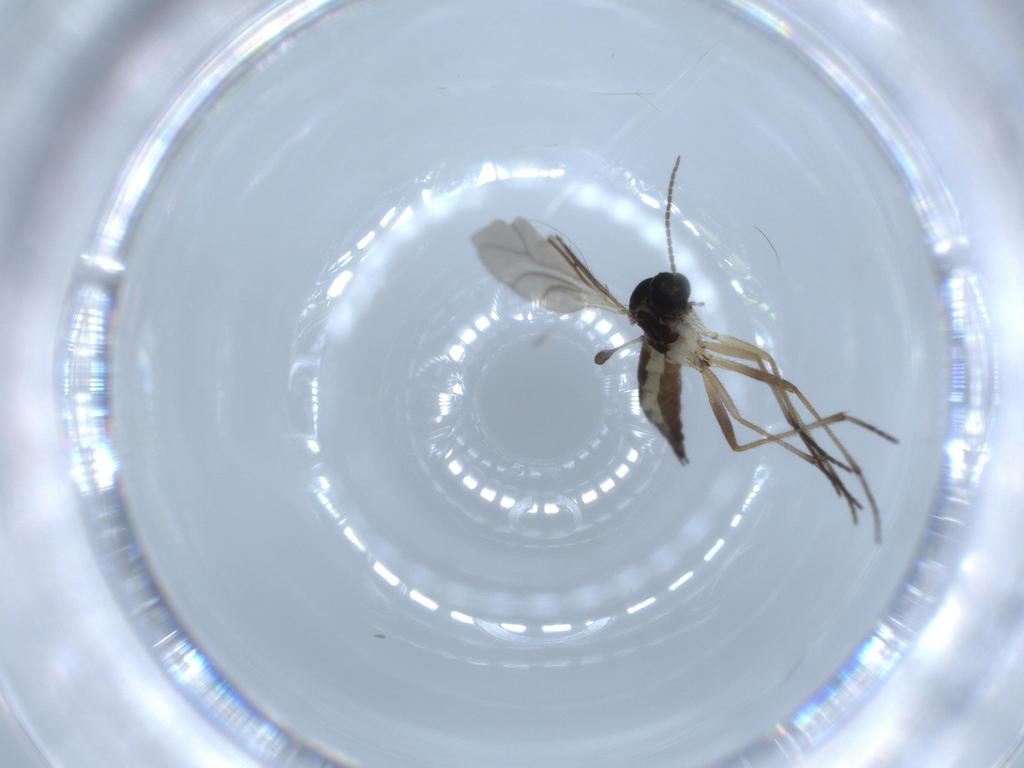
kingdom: Animalia
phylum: Arthropoda
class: Insecta
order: Diptera
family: Sciaridae
